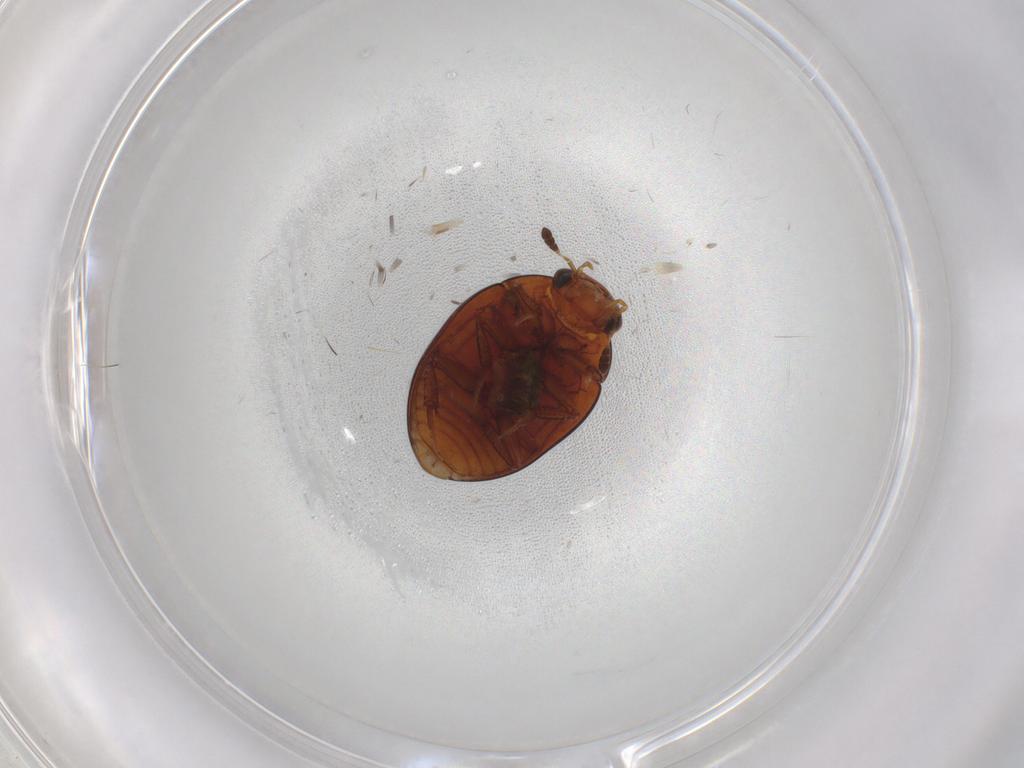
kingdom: Animalia
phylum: Arthropoda
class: Insecta
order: Coleoptera
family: Hydrophilidae
